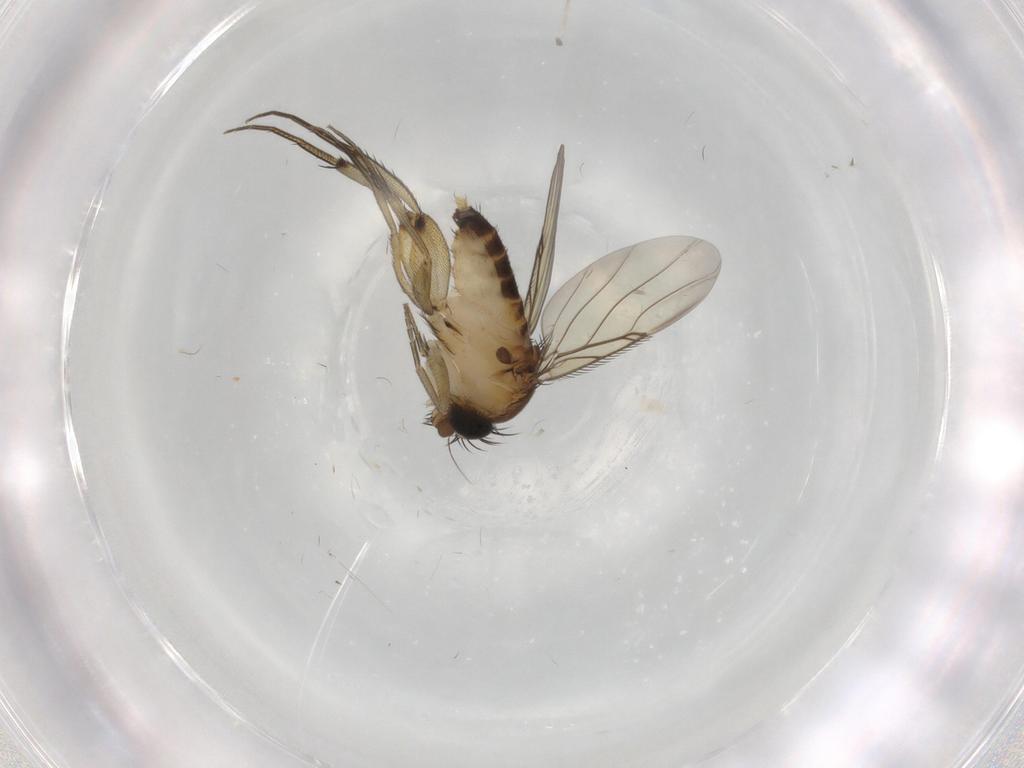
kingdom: Animalia
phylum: Arthropoda
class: Insecta
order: Diptera
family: Phoridae
